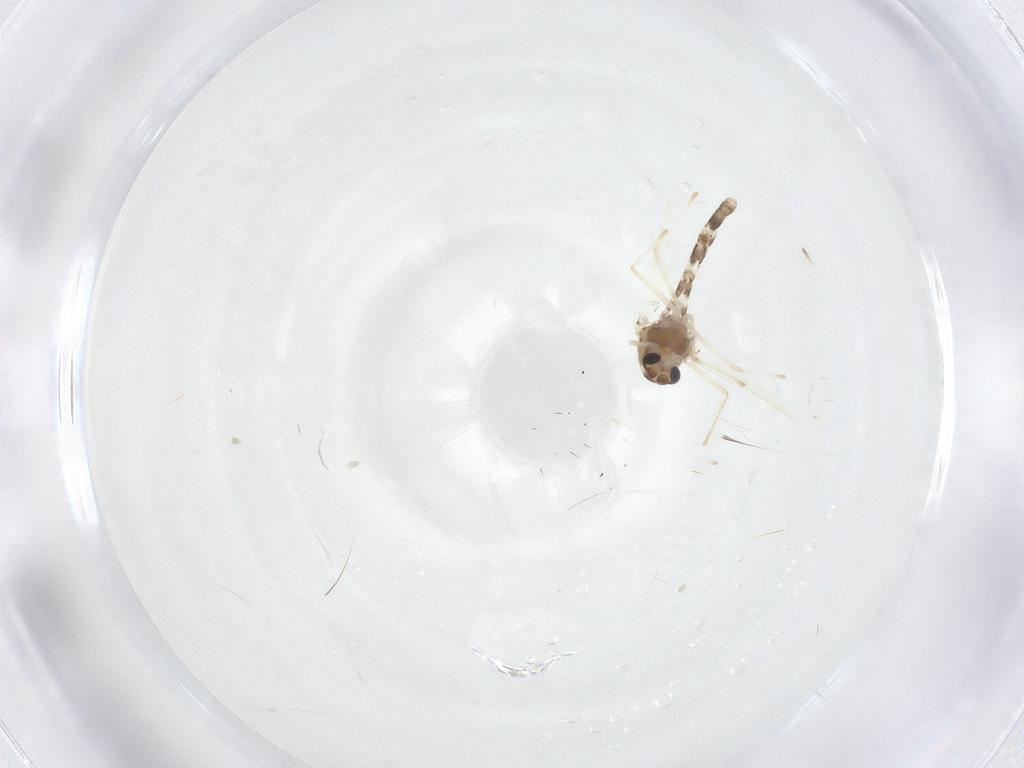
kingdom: Animalia
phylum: Arthropoda
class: Insecta
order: Diptera
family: Chironomidae
